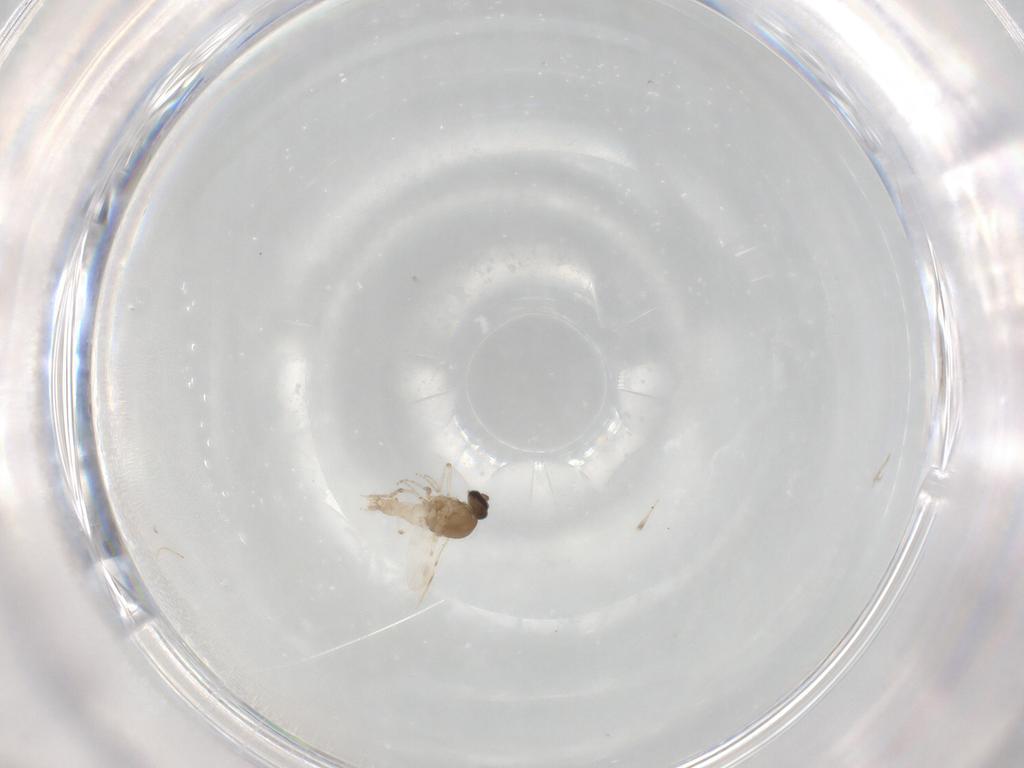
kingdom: Animalia
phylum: Arthropoda
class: Insecta
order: Diptera
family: Ceratopogonidae
